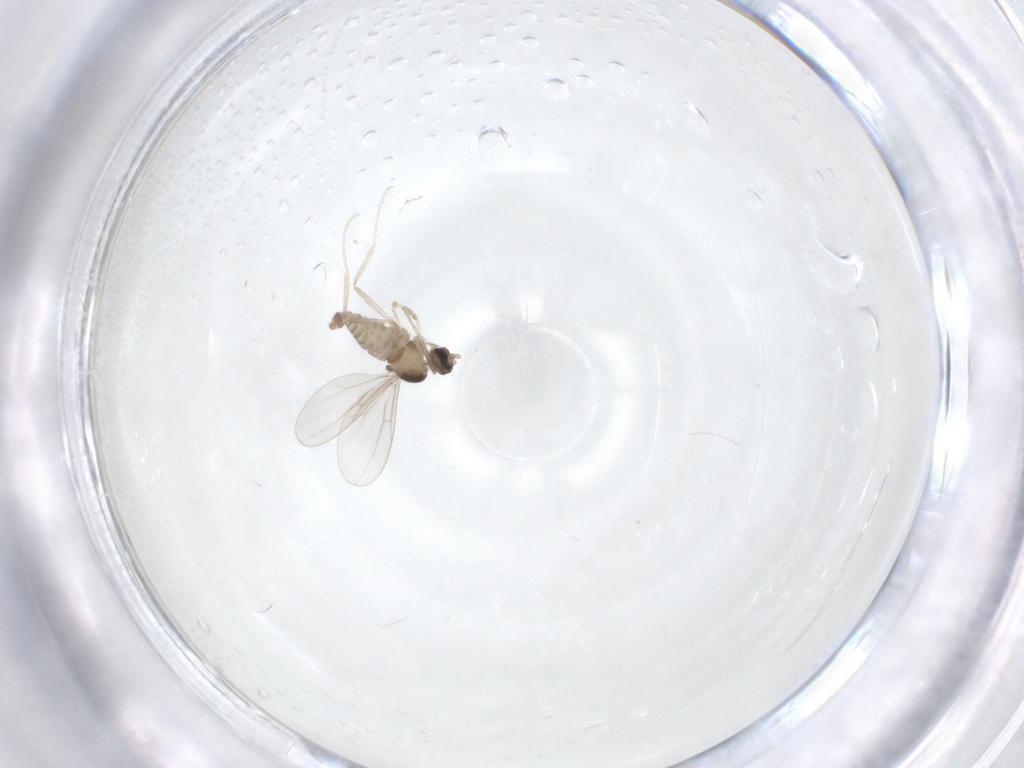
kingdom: Animalia
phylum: Arthropoda
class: Insecta
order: Diptera
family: Cecidomyiidae
